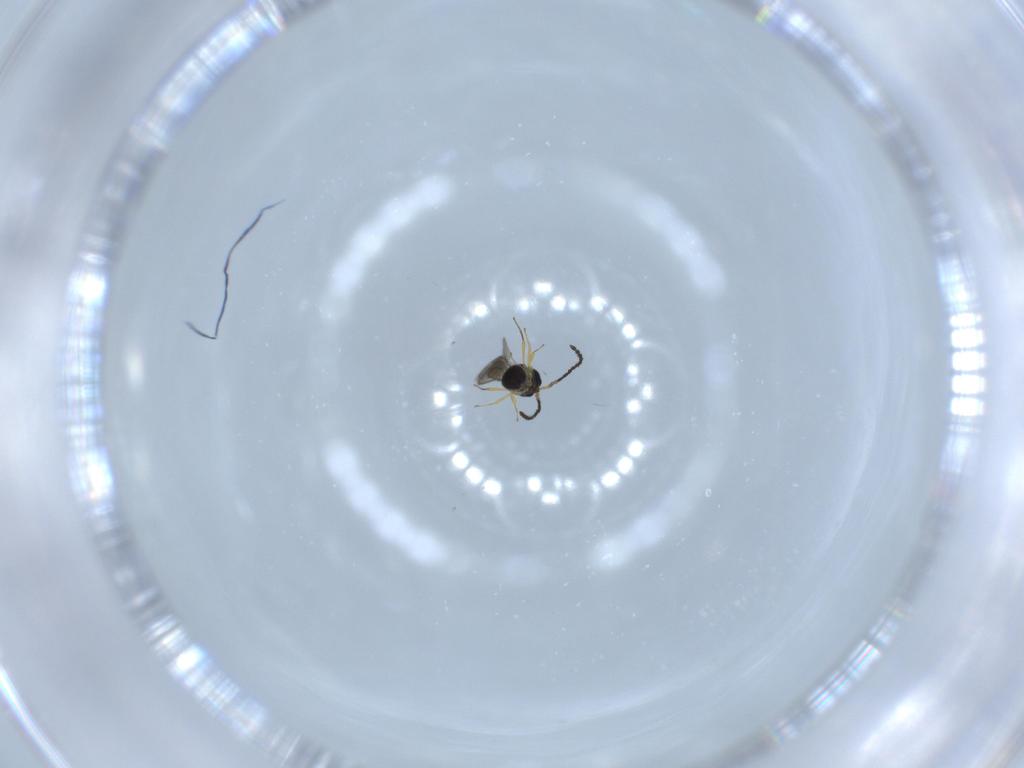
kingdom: Animalia
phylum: Arthropoda
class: Insecta
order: Hymenoptera
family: Scelionidae
